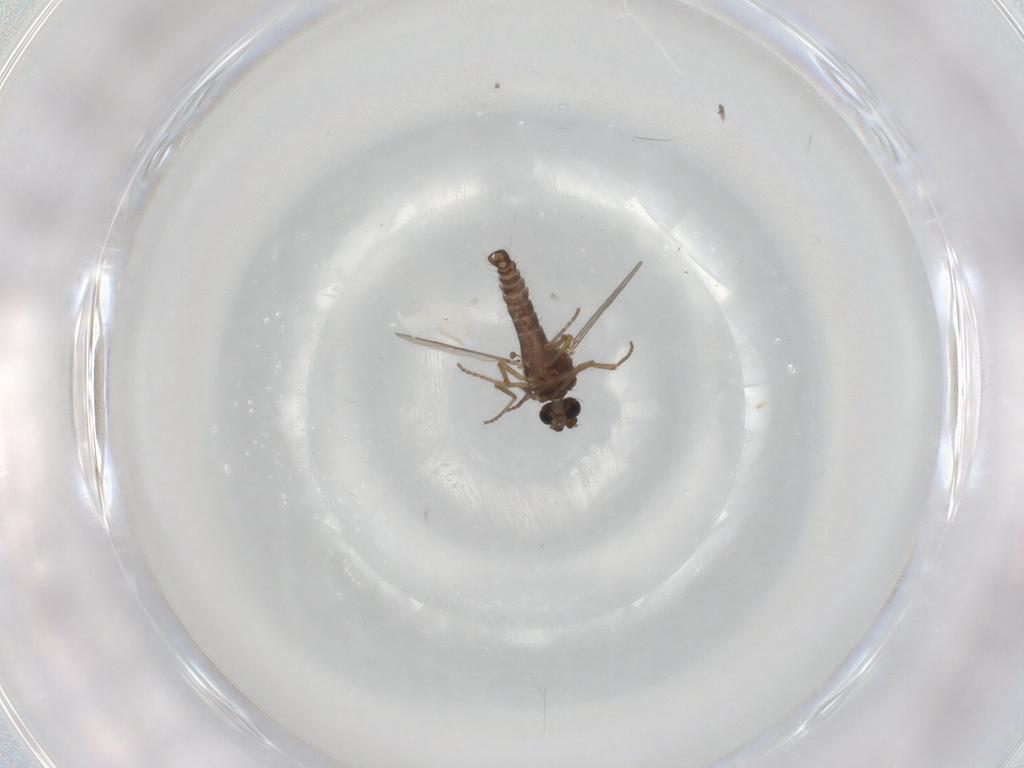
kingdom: Animalia
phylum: Arthropoda
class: Insecta
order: Diptera
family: Ceratopogonidae
